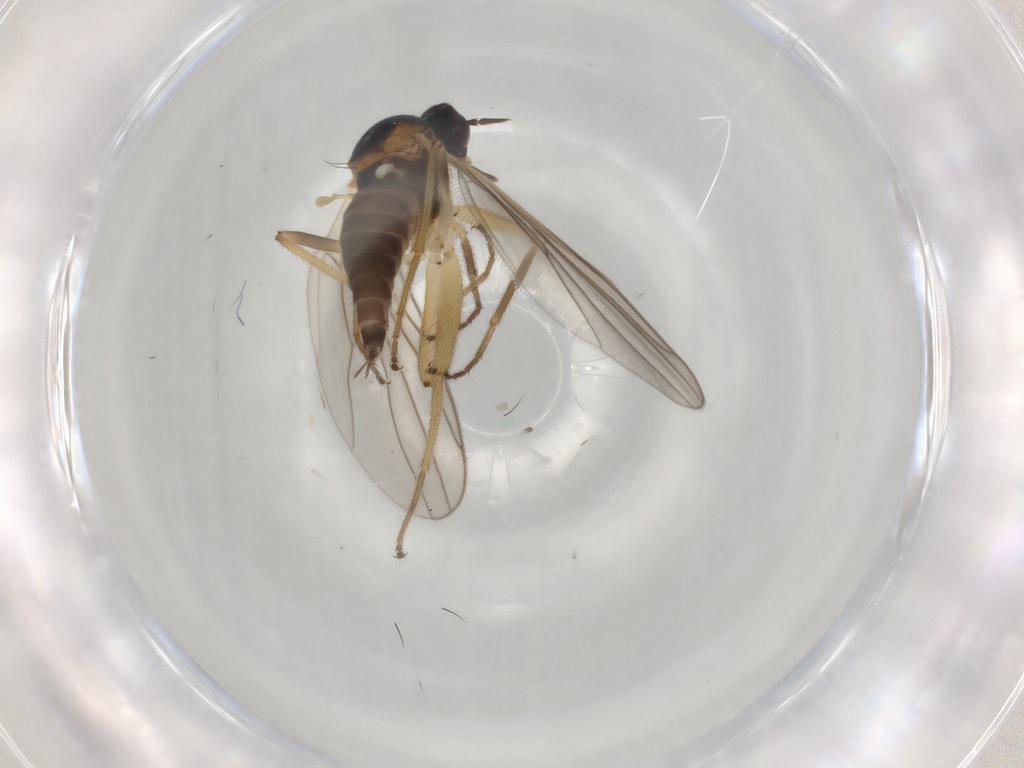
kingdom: Animalia
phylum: Arthropoda
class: Insecta
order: Diptera
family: Hybotidae
